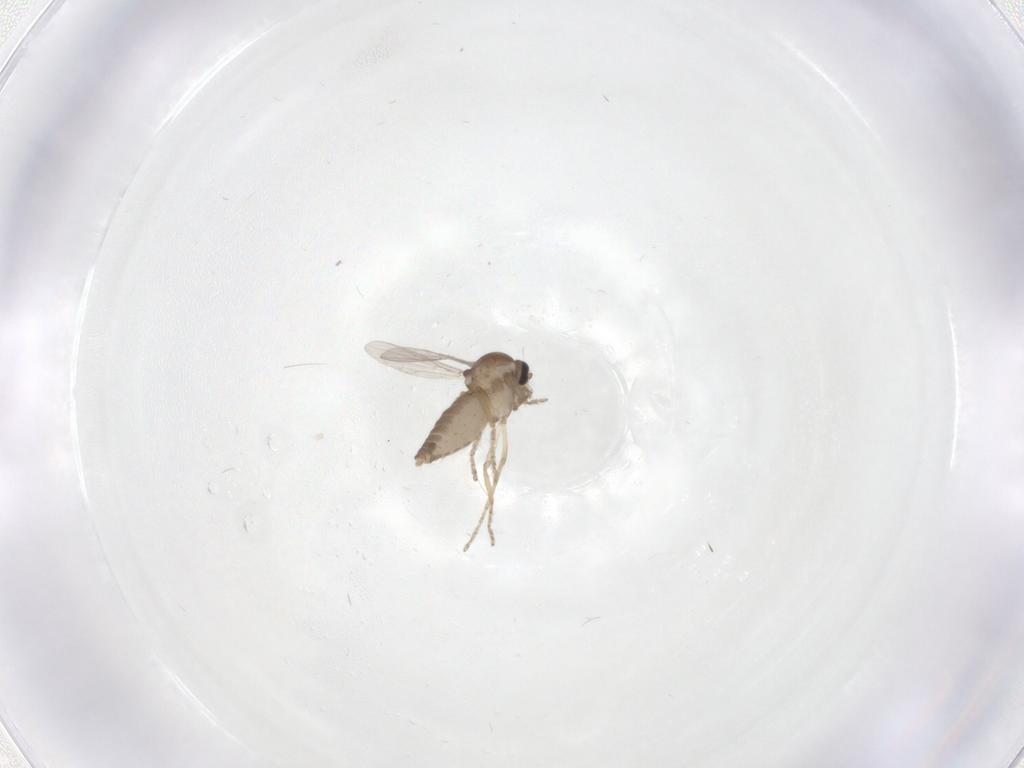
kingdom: Animalia
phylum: Arthropoda
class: Insecta
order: Diptera
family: Ceratopogonidae
